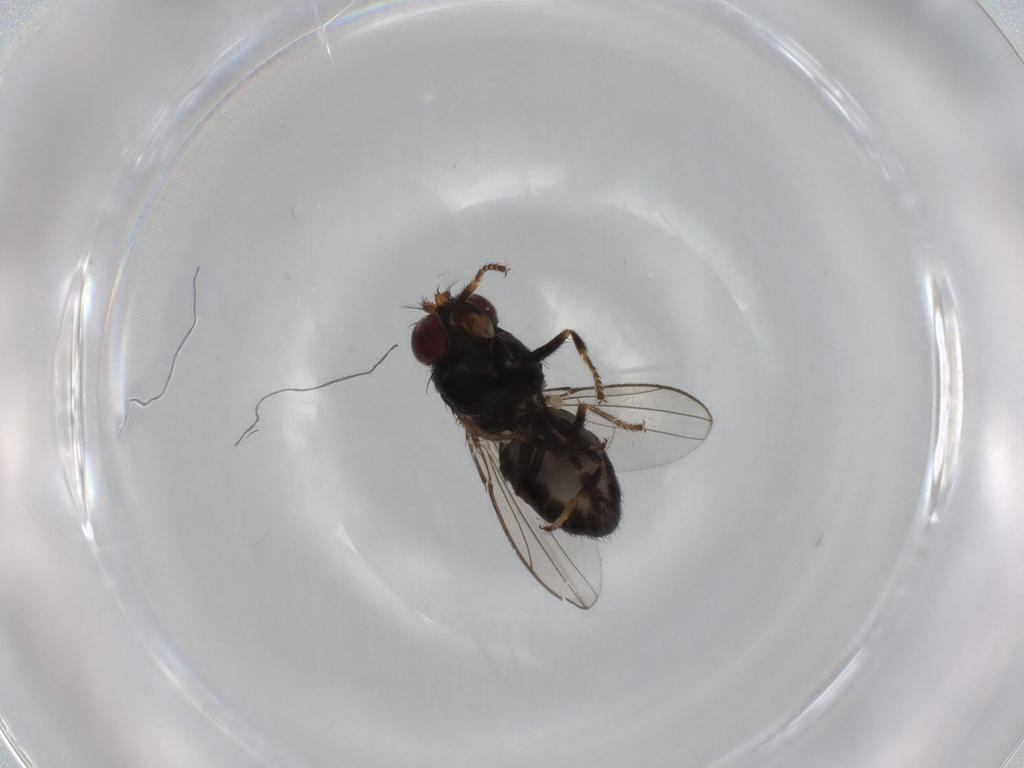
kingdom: Animalia
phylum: Arthropoda
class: Insecta
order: Diptera
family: Ephydridae
